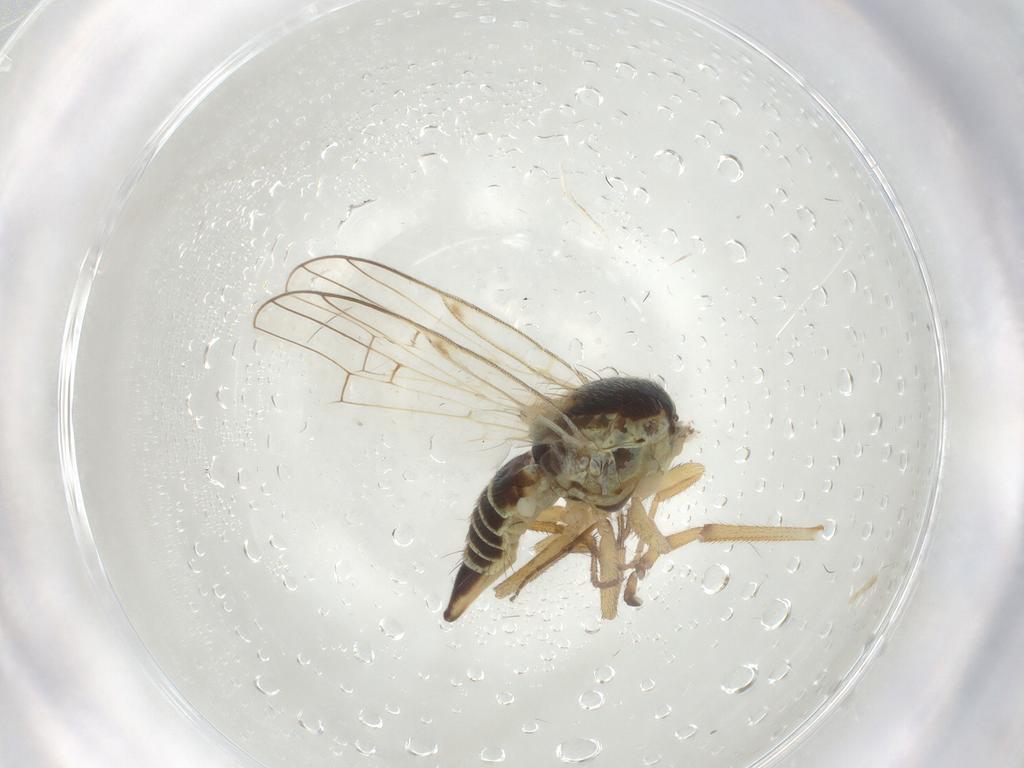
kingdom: Animalia
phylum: Arthropoda
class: Insecta
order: Diptera
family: Tephritidae
